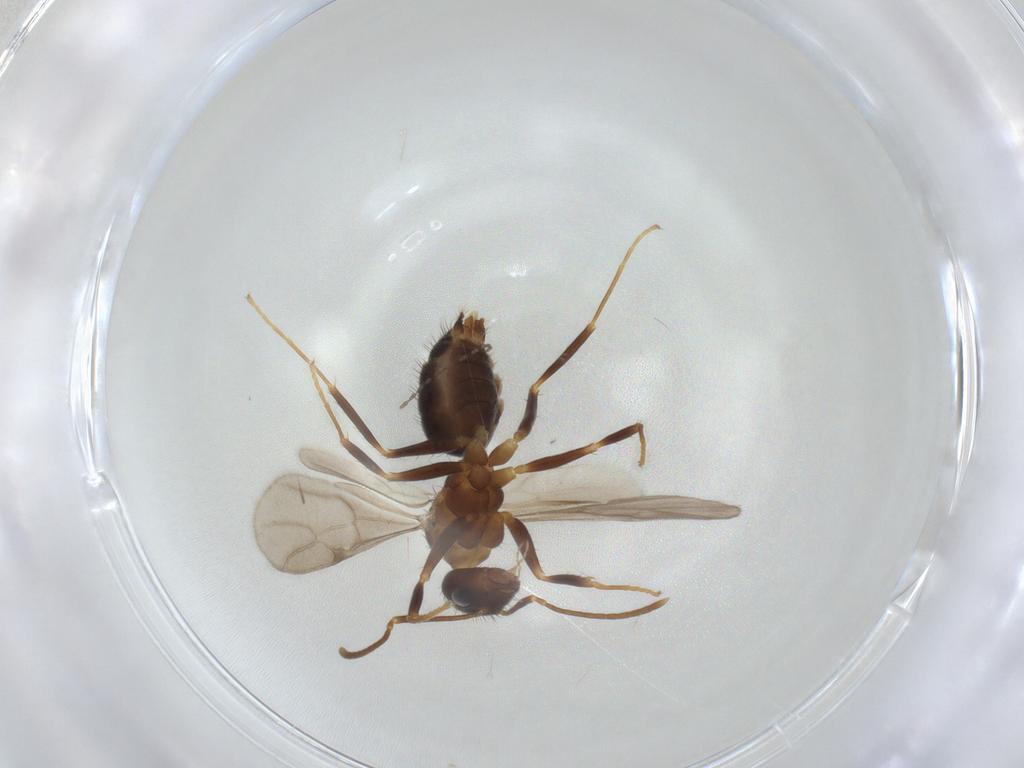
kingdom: Animalia
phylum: Arthropoda
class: Insecta
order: Hymenoptera
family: Formicidae
